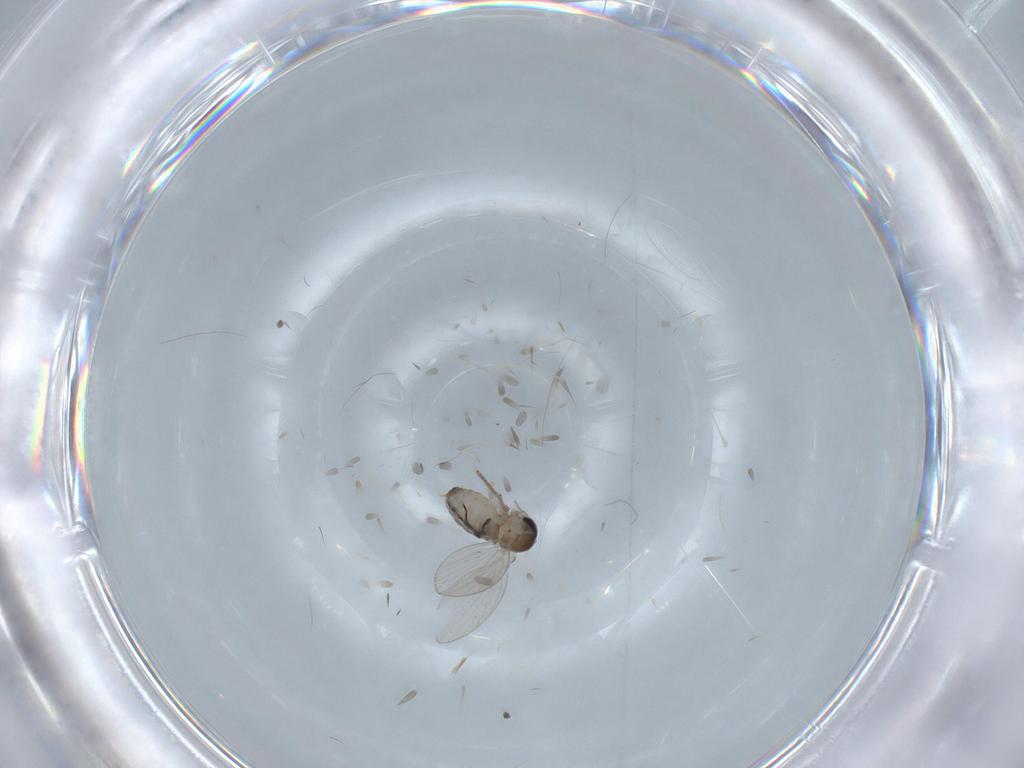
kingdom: Animalia
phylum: Arthropoda
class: Insecta
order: Diptera
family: Psychodidae
